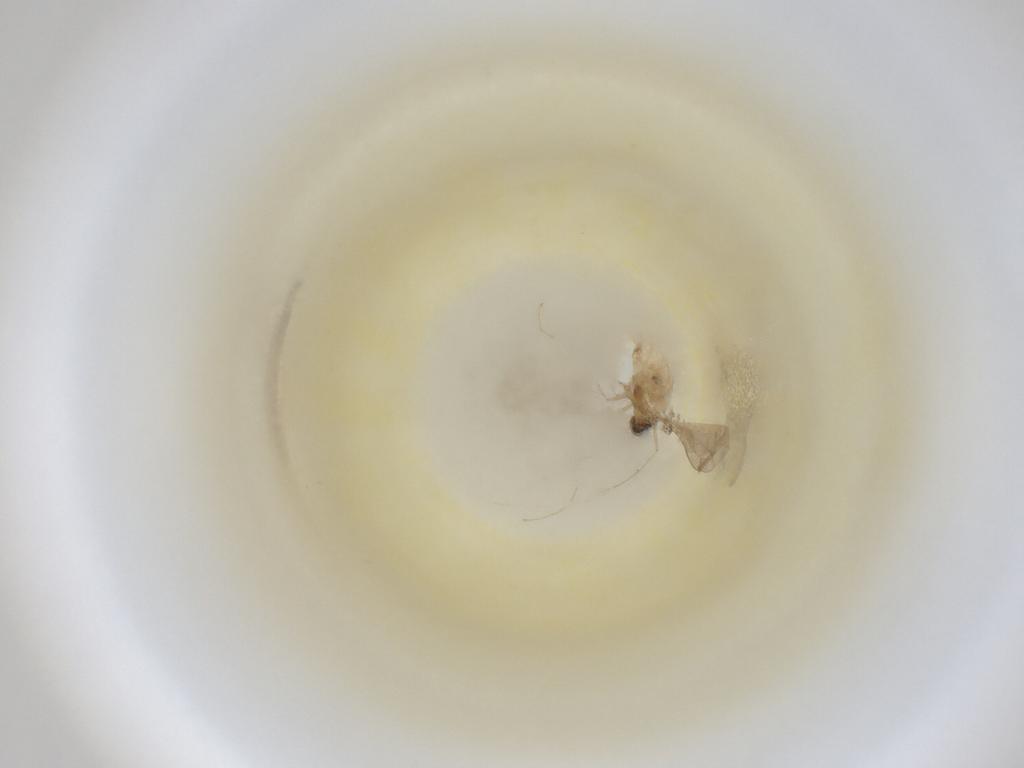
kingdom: Animalia
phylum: Arthropoda
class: Insecta
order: Diptera
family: Cecidomyiidae
